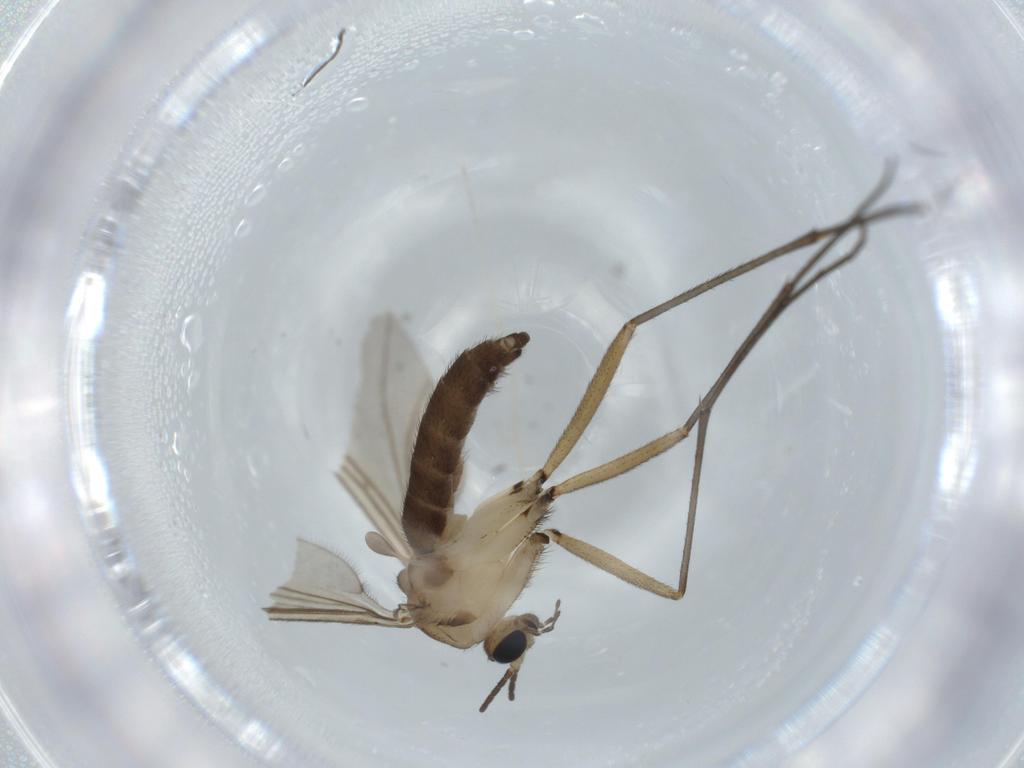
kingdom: Animalia
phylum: Arthropoda
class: Insecta
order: Diptera
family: Sciaridae
